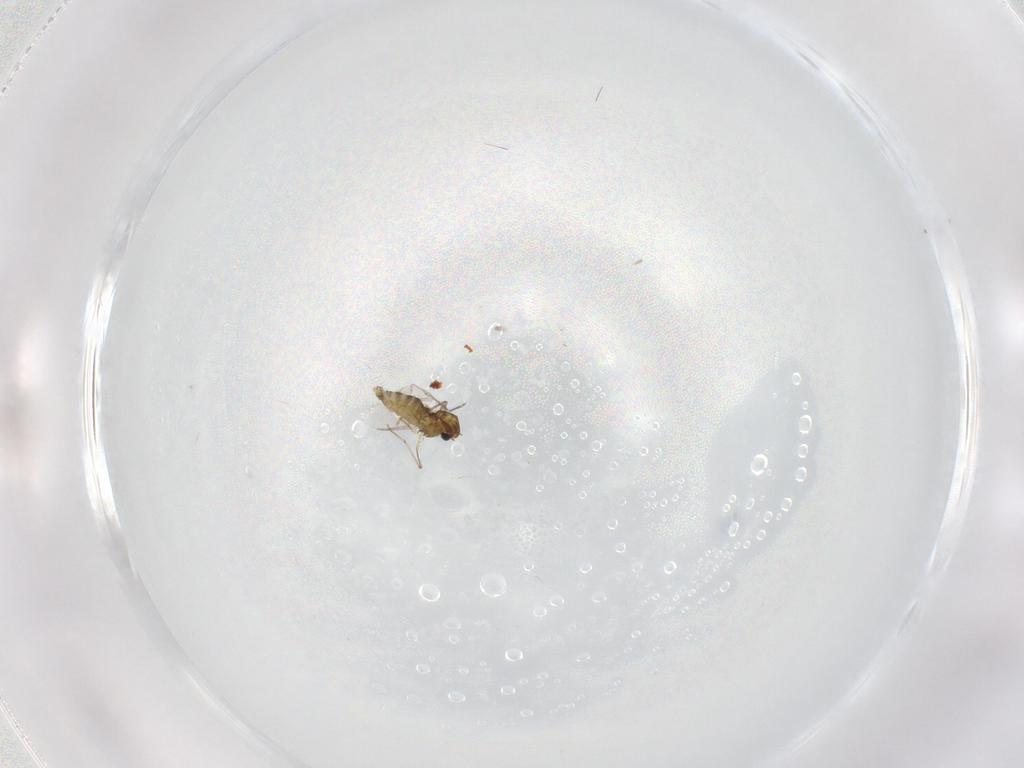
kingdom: Animalia
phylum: Arthropoda
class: Insecta
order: Diptera
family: Chironomidae
